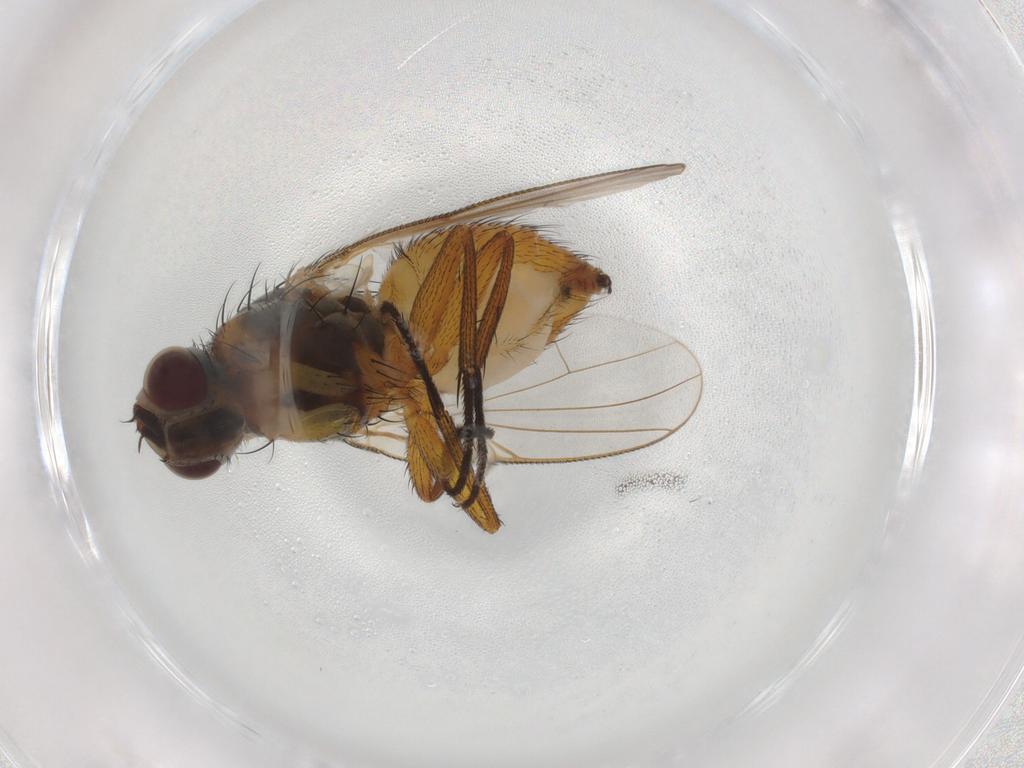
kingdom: Animalia
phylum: Arthropoda
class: Insecta
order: Diptera
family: Muscidae
